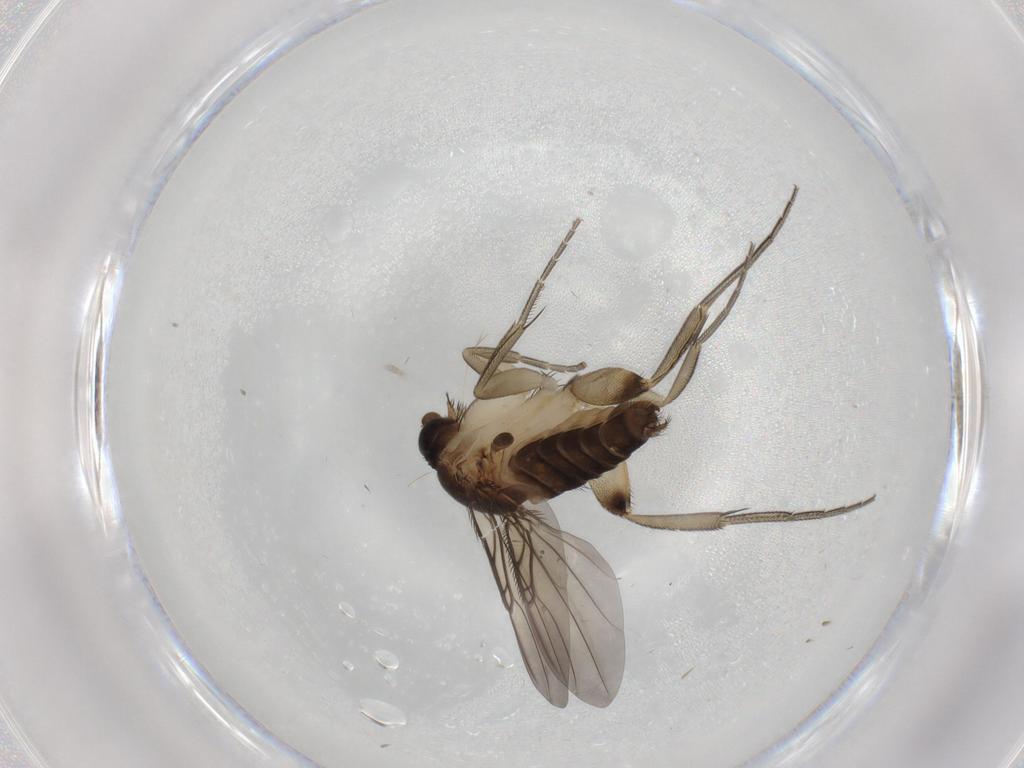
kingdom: Animalia
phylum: Arthropoda
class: Insecta
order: Diptera
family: Phoridae
